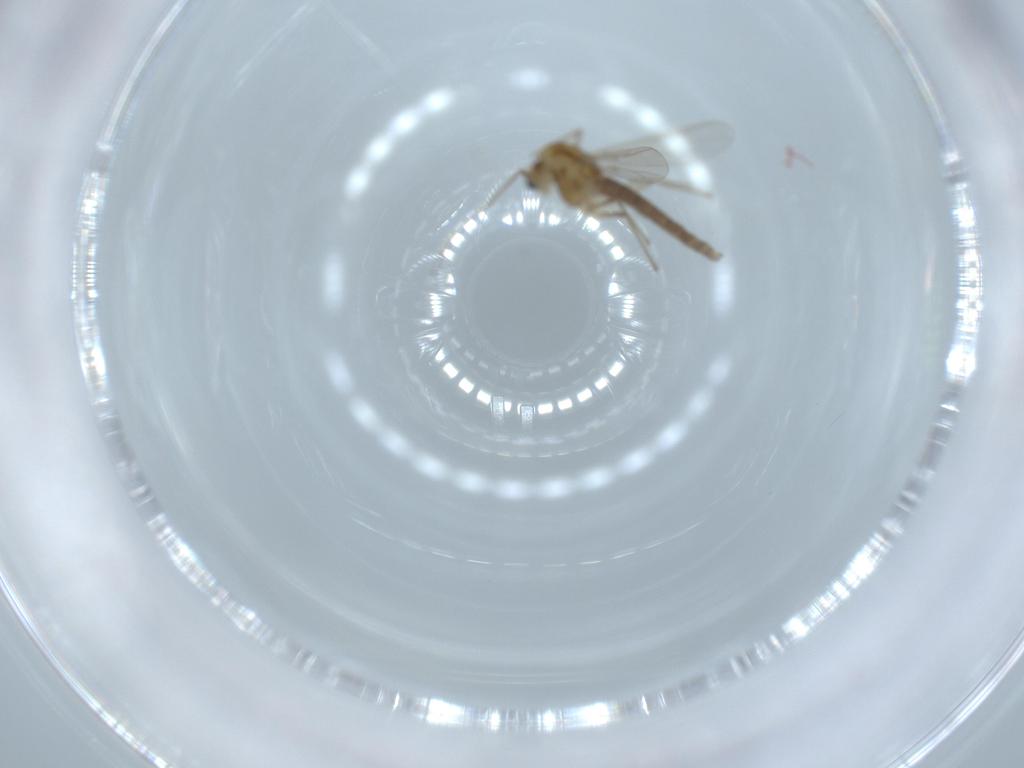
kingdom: Animalia
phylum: Arthropoda
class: Insecta
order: Diptera
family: Chironomidae
